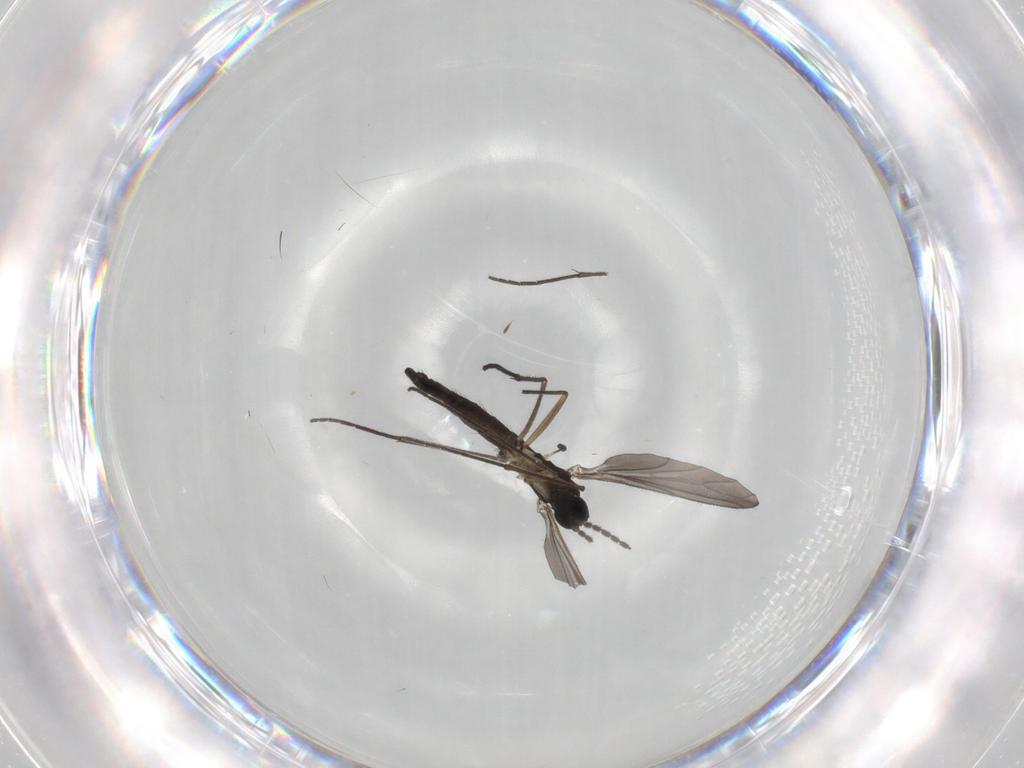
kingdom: Animalia
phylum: Arthropoda
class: Insecta
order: Diptera
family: Sciaridae
